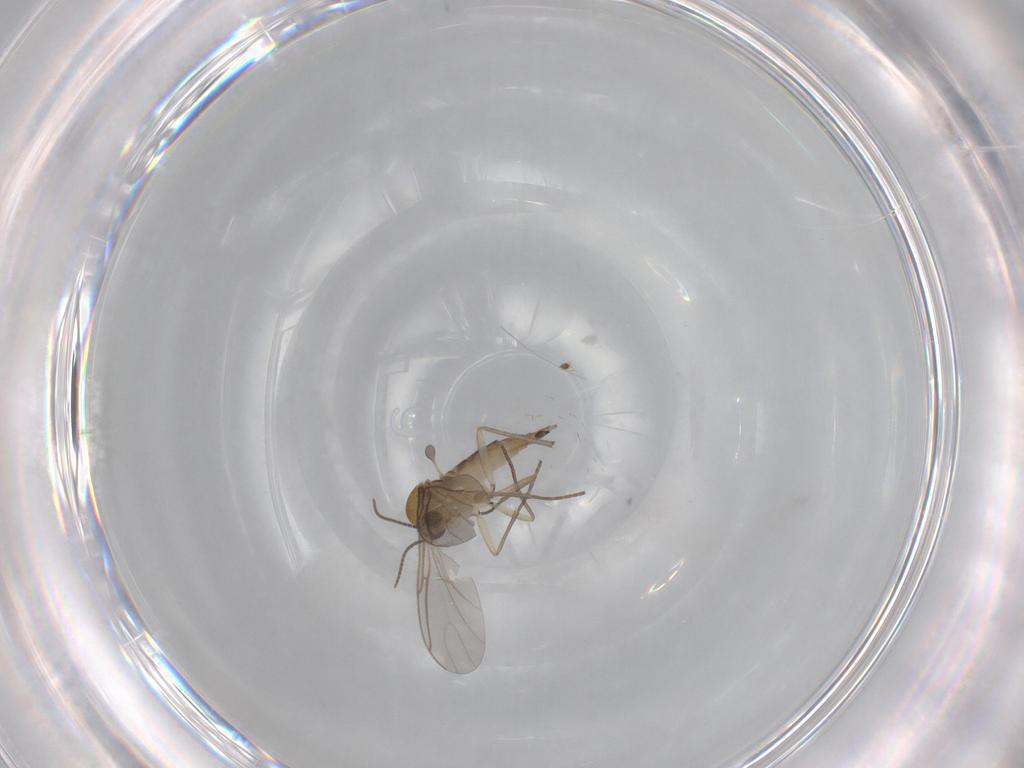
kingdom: Animalia
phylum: Arthropoda
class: Insecta
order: Diptera
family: Sciaridae
